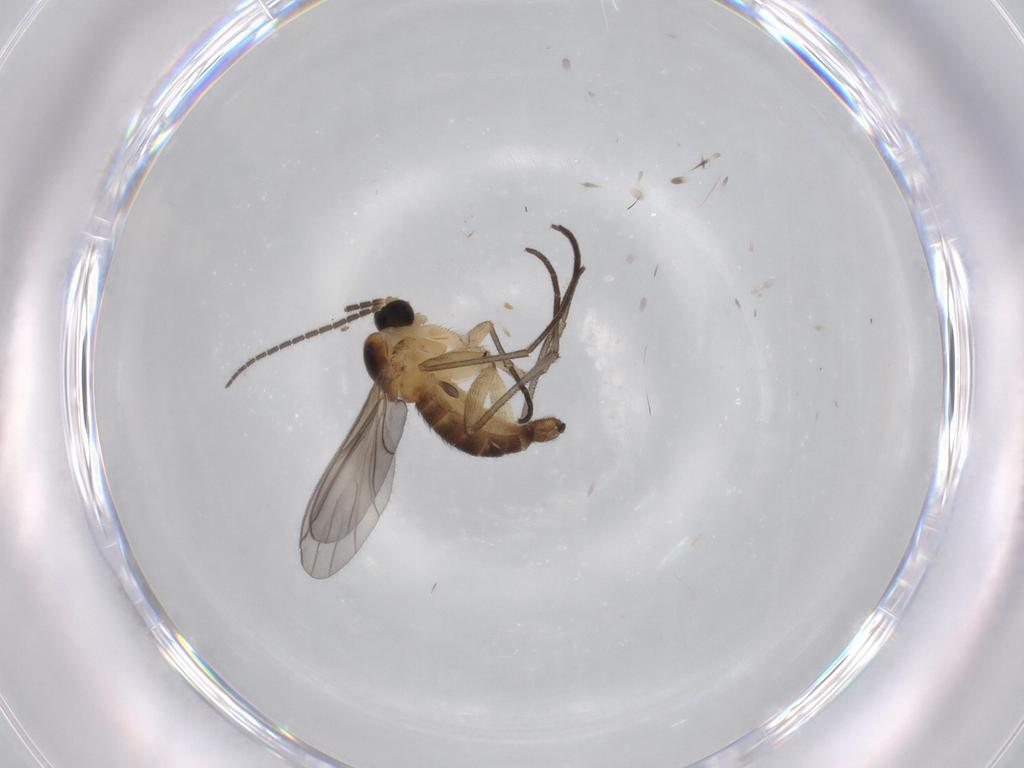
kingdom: Animalia
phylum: Arthropoda
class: Insecta
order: Diptera
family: Sciaridae
